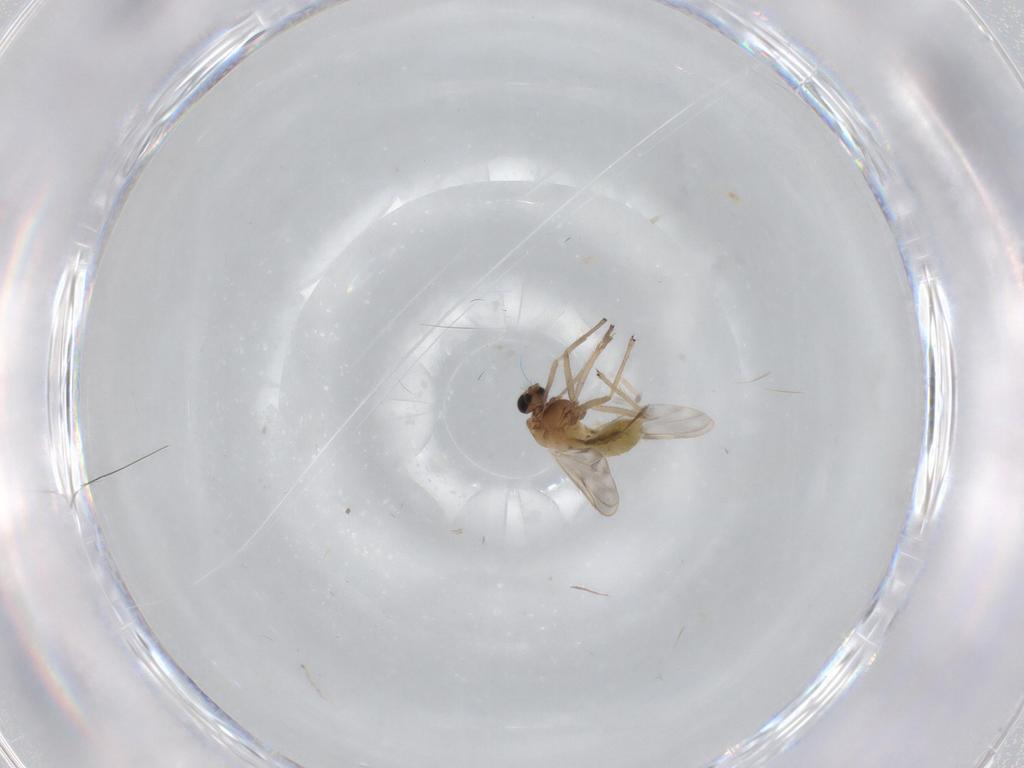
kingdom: Animalia
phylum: Arthropoda
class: Insecta
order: Diptera
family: Chironomidae
